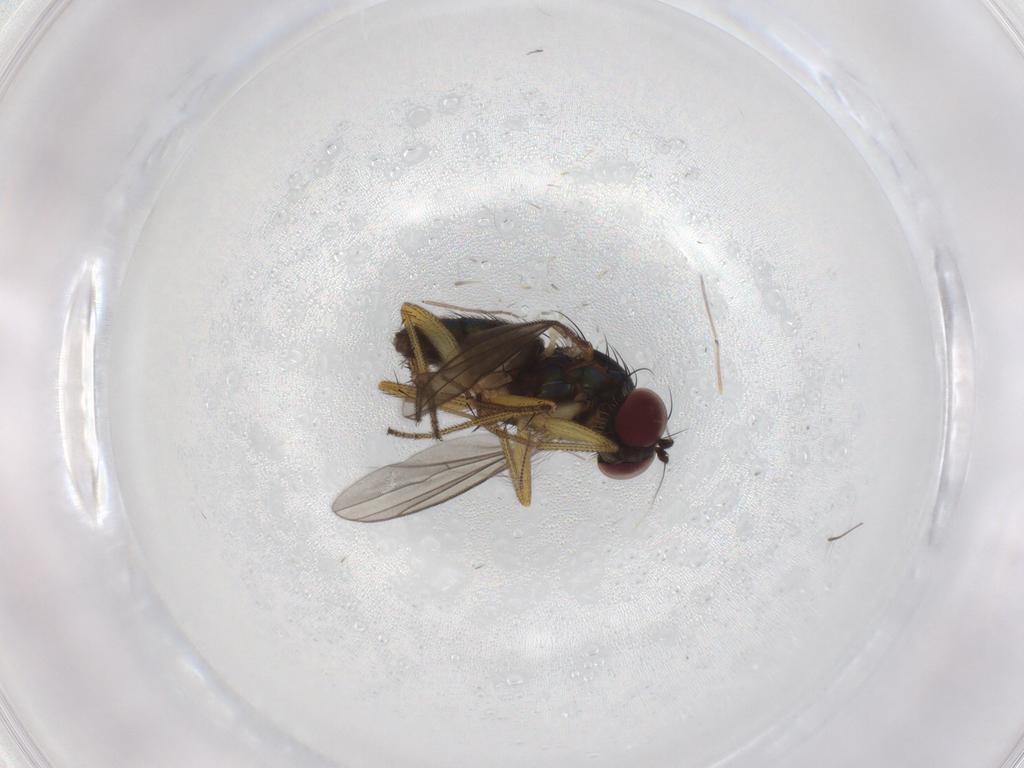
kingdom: Animalia
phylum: Arthropoda
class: Insecta
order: Diptera
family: Chironomidae
